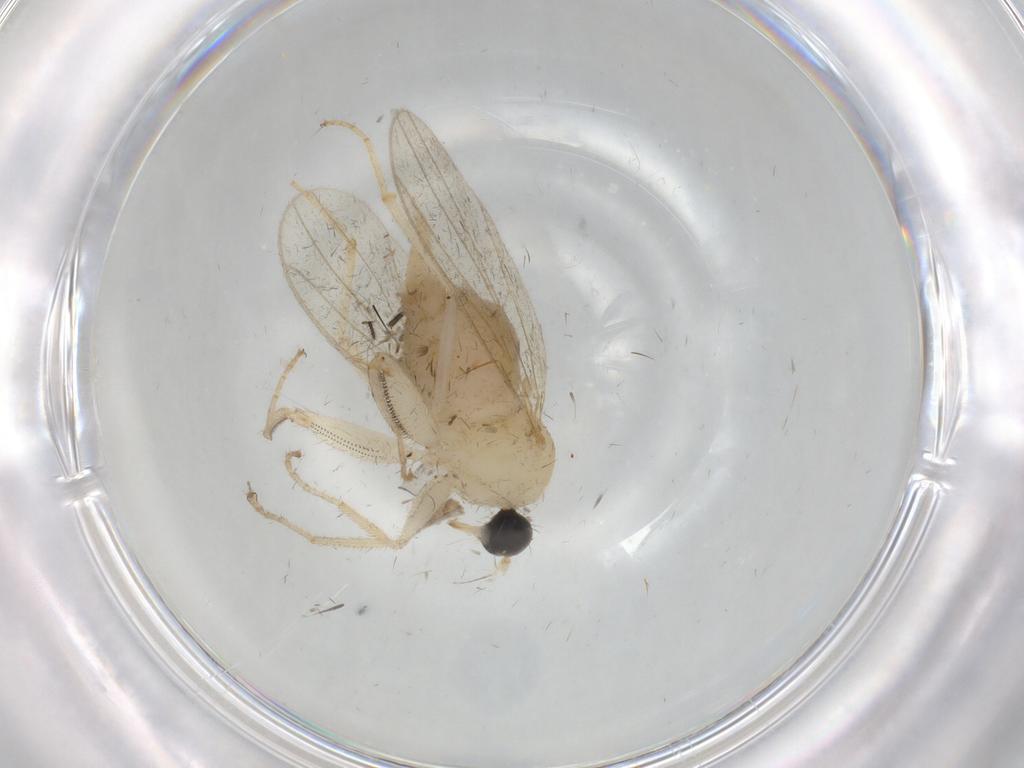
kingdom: Animalia
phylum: Arthropoda
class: Insecta
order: Diptera
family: Hybotidae
